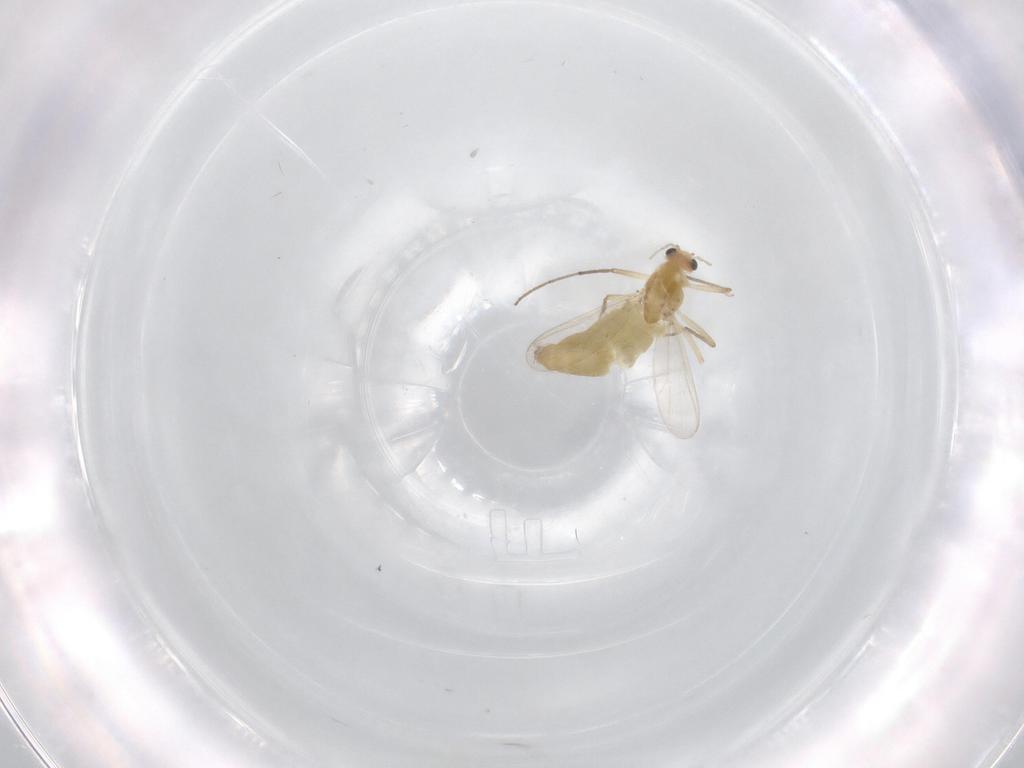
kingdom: Animalia
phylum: Arthropoda
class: Insecta
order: Diptera
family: Chironomidae
